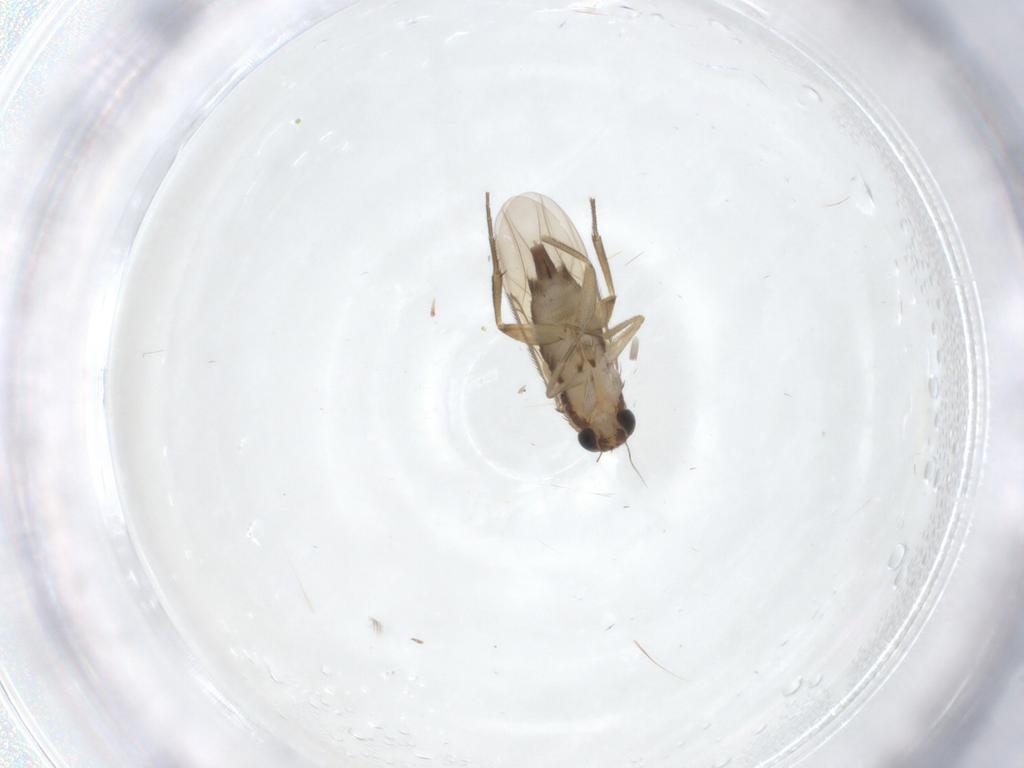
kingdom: Animalia
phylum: Arthropoda
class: Insecta
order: Diptera
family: Phoridae
